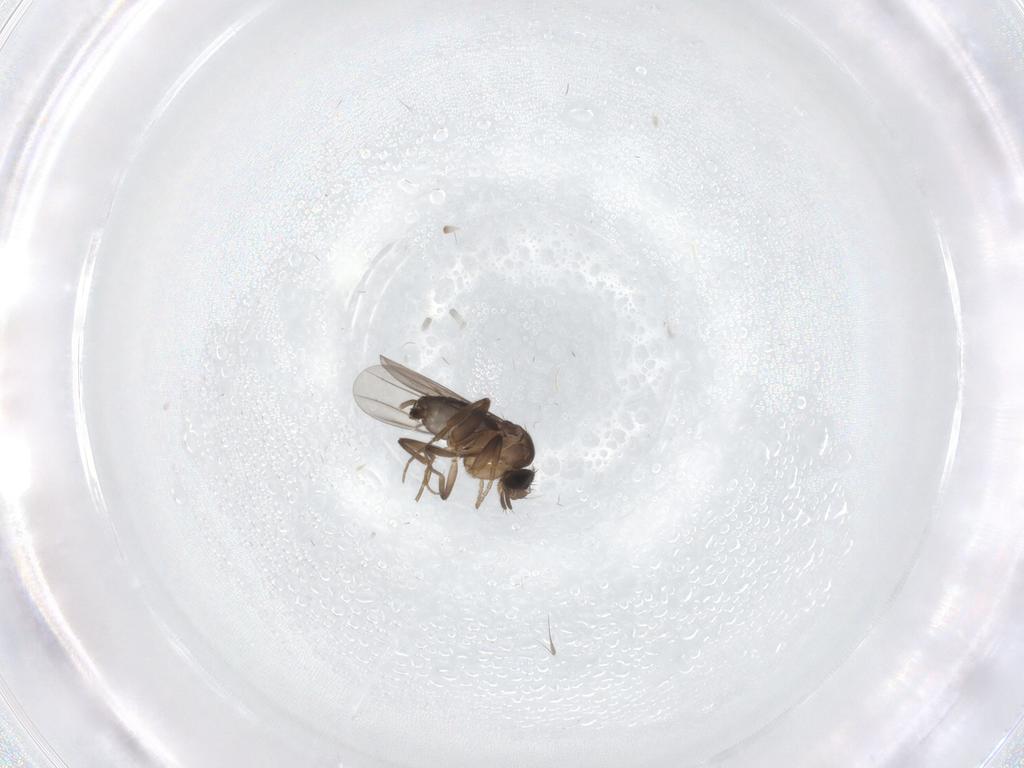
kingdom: Animalia
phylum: Arthropoda
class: Insecta
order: Diptera
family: Phoridae
